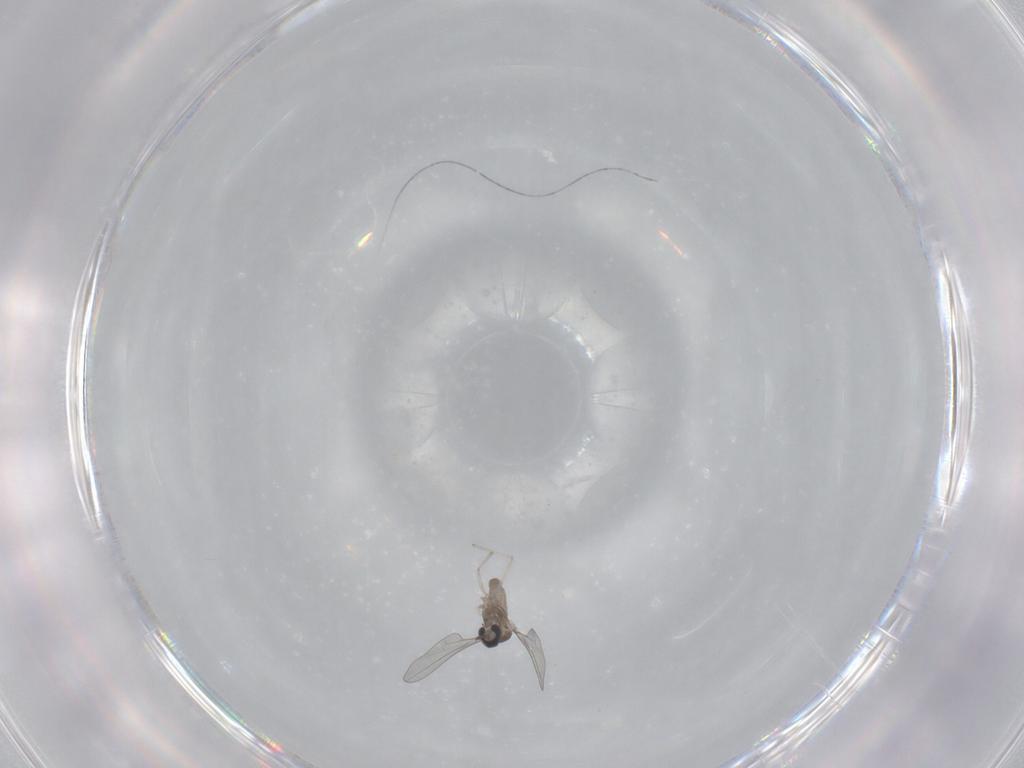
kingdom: Animalia
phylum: Arthropoda
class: Insecta
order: Diptera
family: Cecidomyiidae
